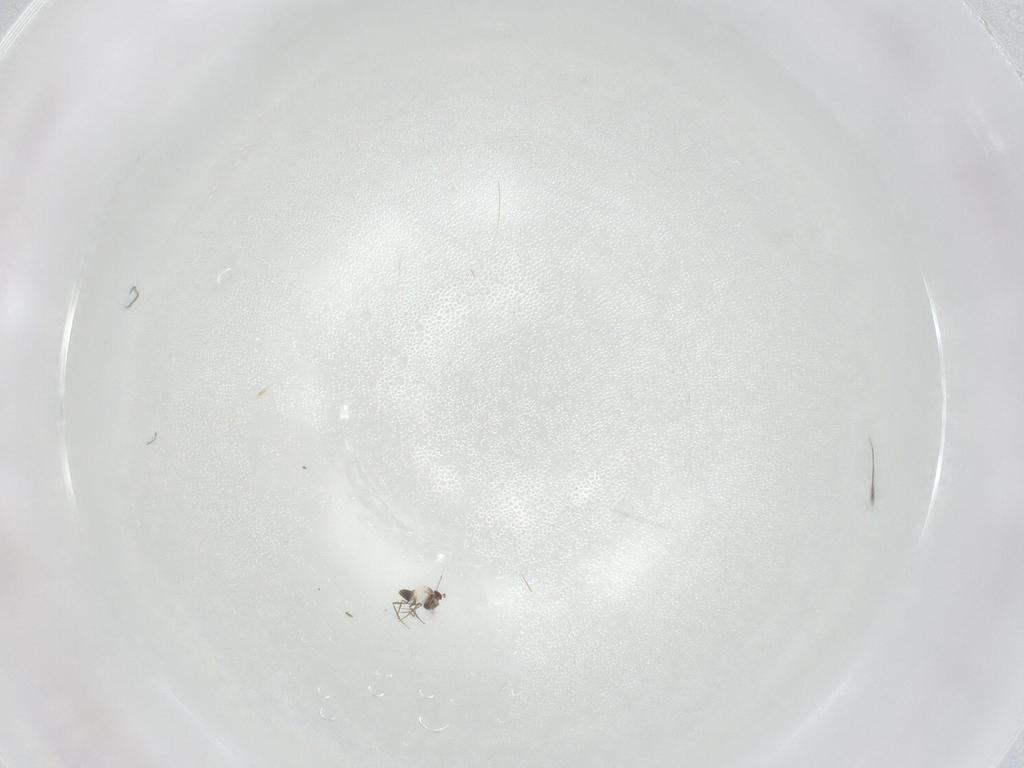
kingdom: Animalia
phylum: Arthropoda
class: Insecta
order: Hymenoptera
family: Mymaridae
